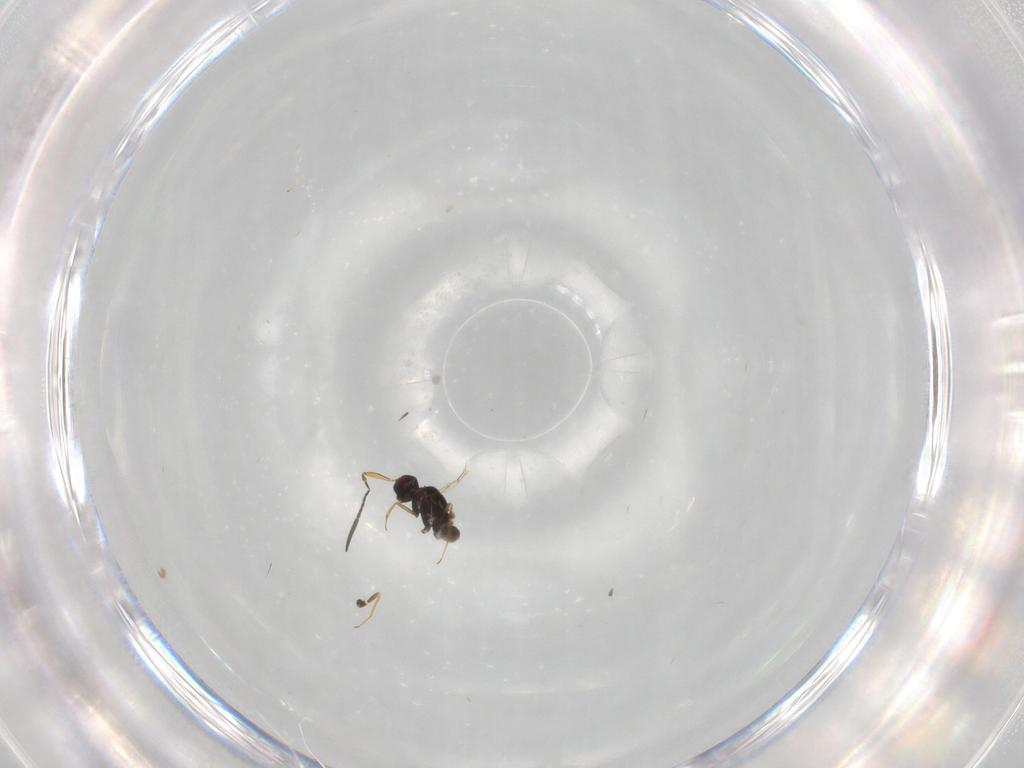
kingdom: Animalia
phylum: Arthropoda
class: Insecta
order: Hymenoptera
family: Mymaridae
